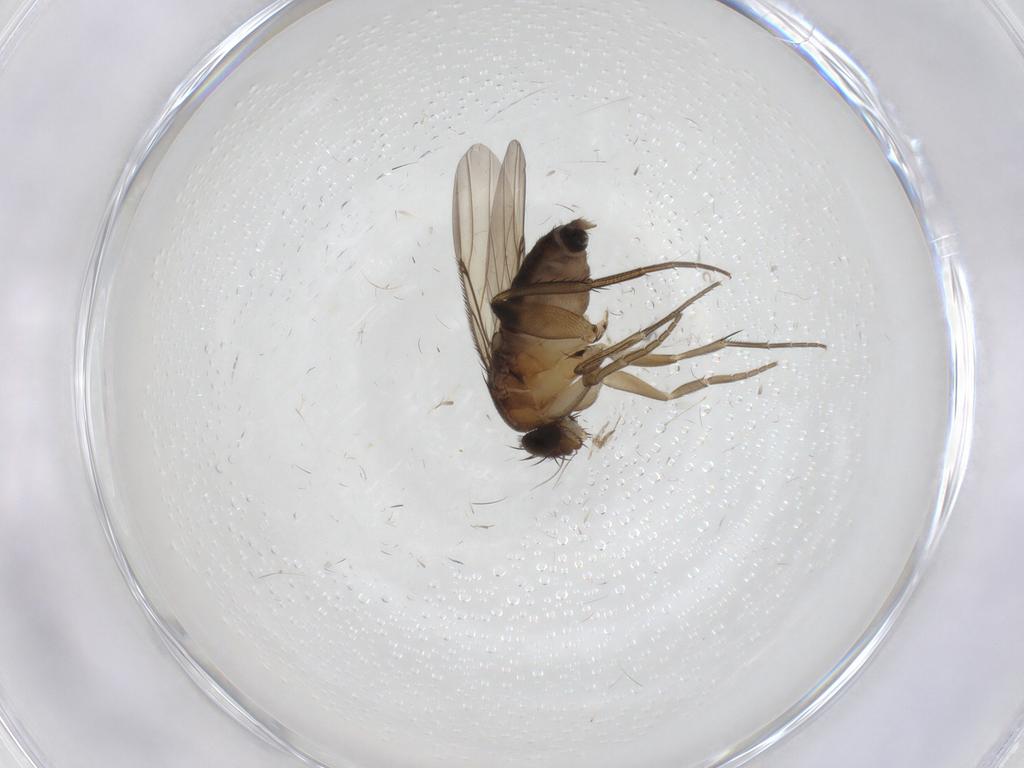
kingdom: Animalia
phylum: Arthropoda
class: Insecta
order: Diptera
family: Phoridae
